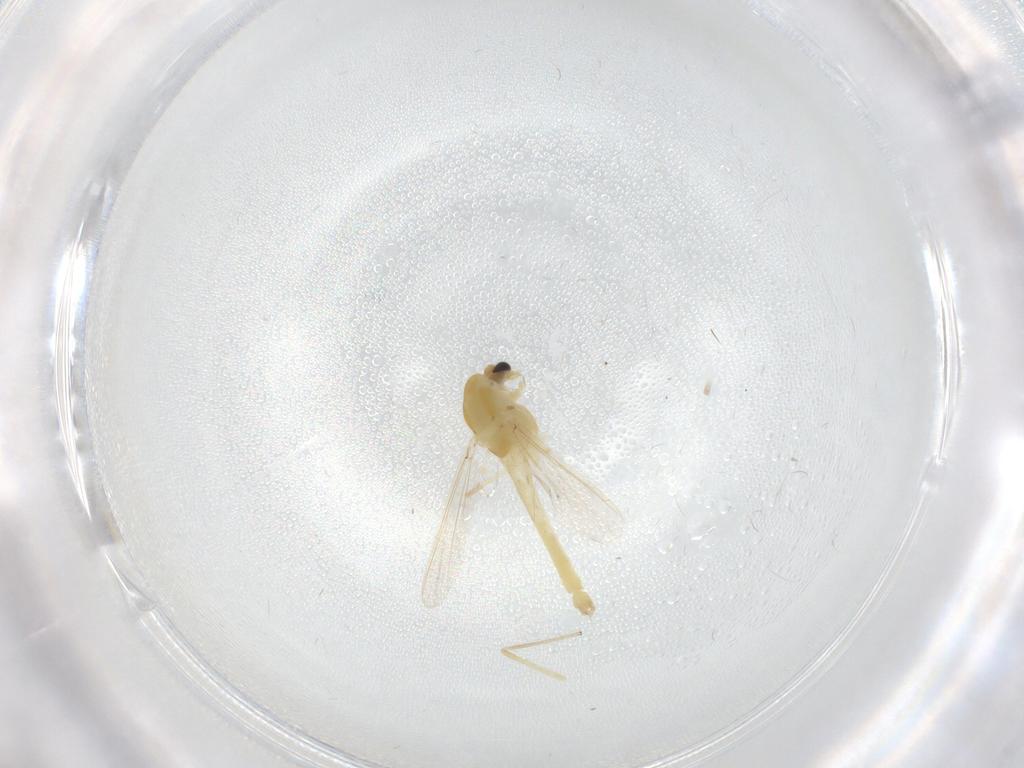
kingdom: Animalia
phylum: Arthropoda
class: Insecta
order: Diptera
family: Chironomidae
